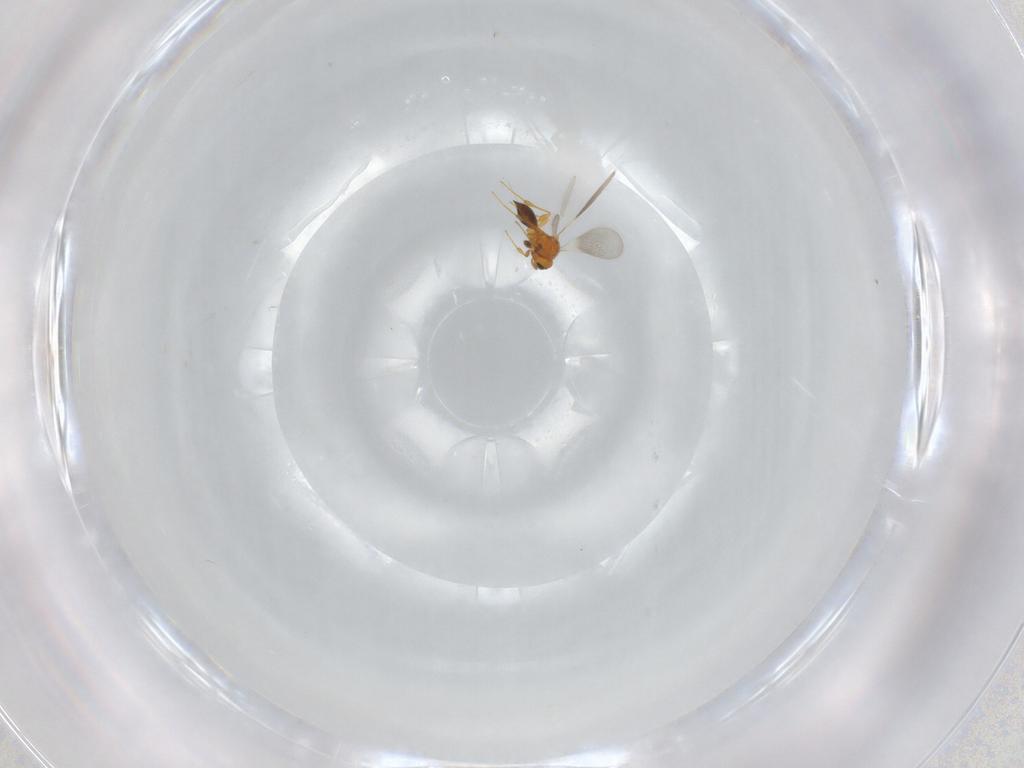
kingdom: Animalia
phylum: Arthropoda
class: Insecta
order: Hymenoptera
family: Platygastridae
